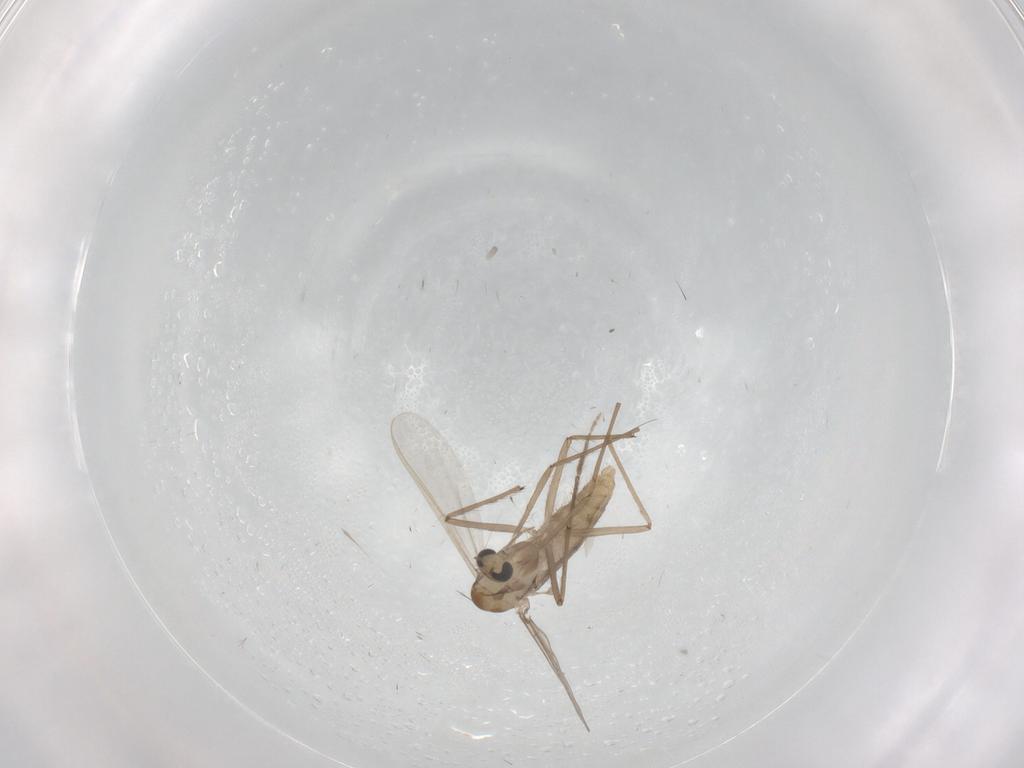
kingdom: Animalia
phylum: Arthropoda
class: Insecta
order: Diptera
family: Chironomidae
